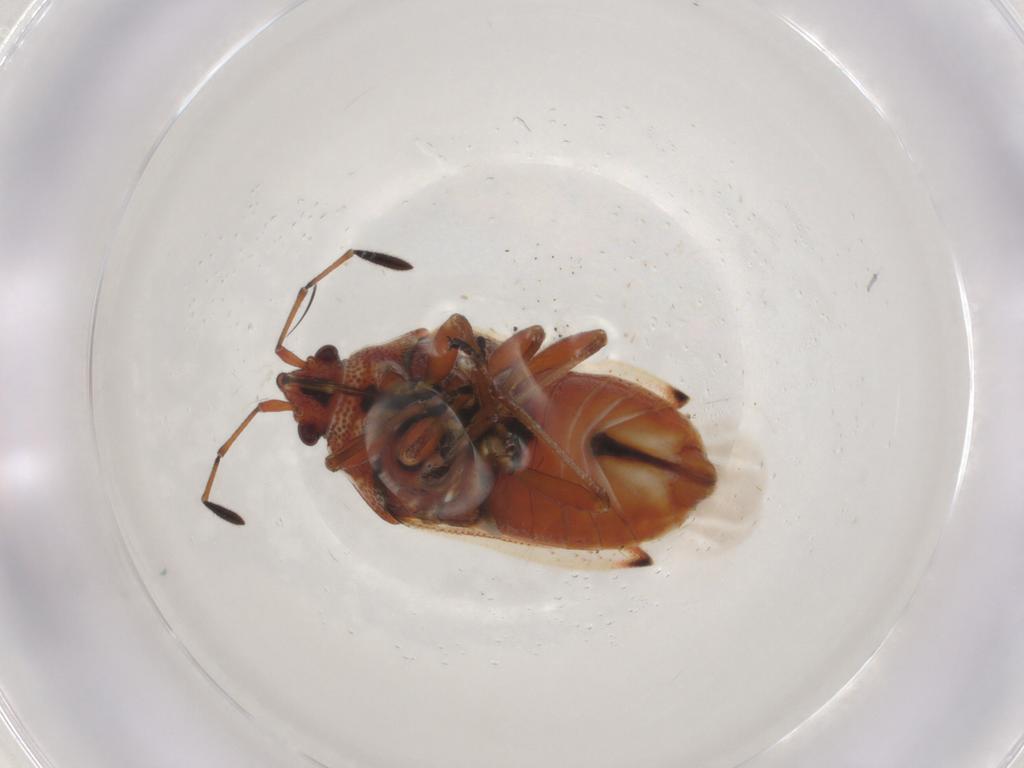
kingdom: Animalia
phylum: Arthropoda
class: Insecta
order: Hemiptera
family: Lygaeidae
